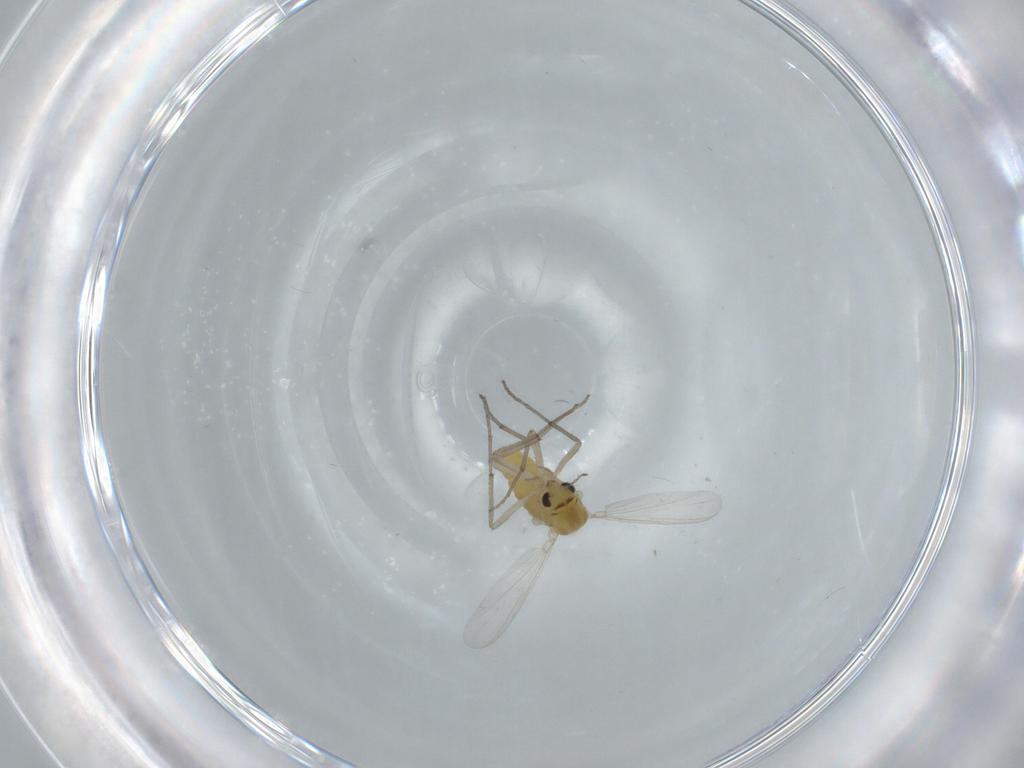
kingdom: Animalia
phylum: Arthropoda
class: Insecta
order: Diptera
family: Chironomidae
